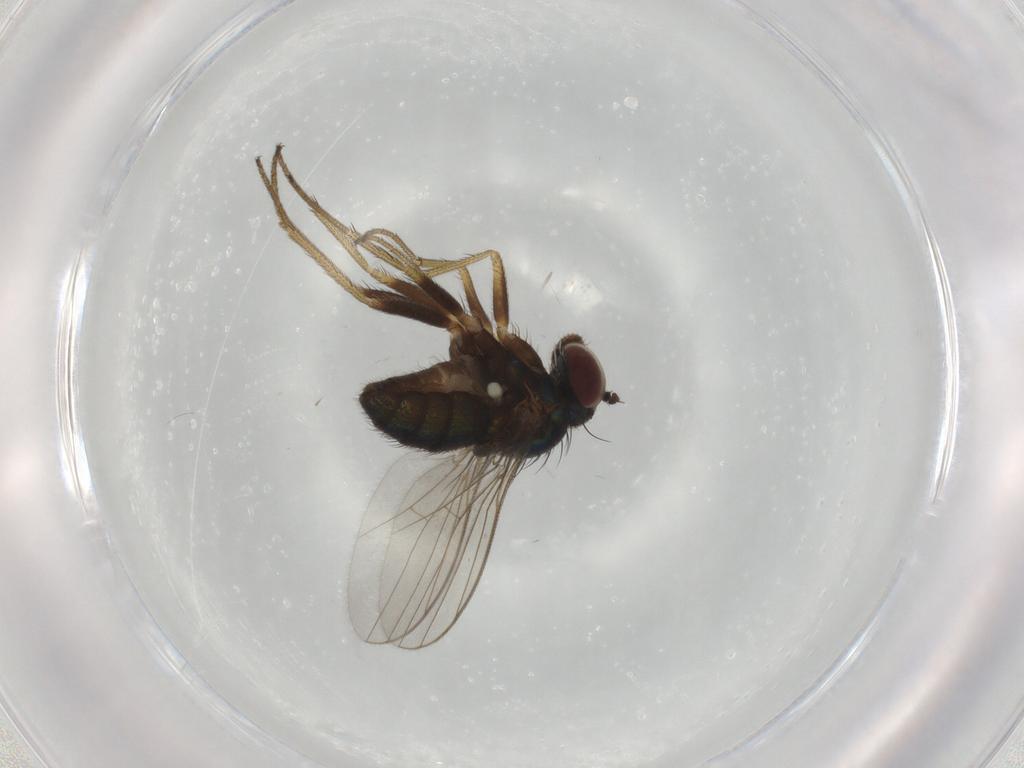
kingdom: Animalia
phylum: Arthropoda
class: Insecta
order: Diptera
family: Dolichopodidae
